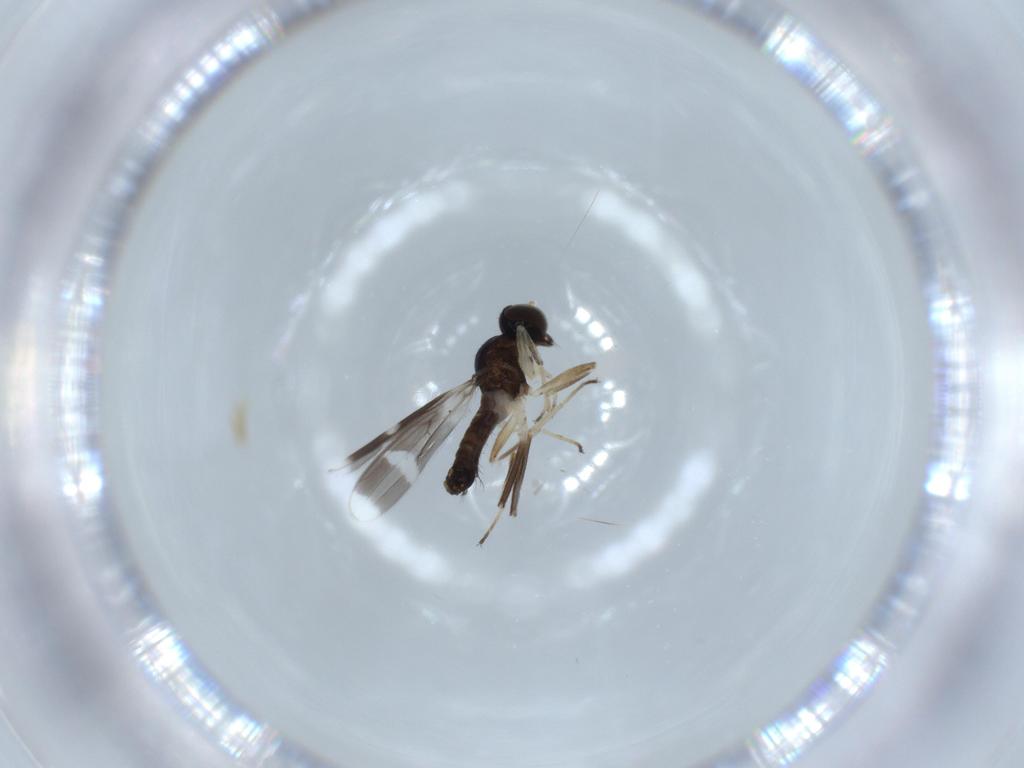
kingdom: Animalia
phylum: Arthropoda
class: Insecta
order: Diptera
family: Hybotidae
